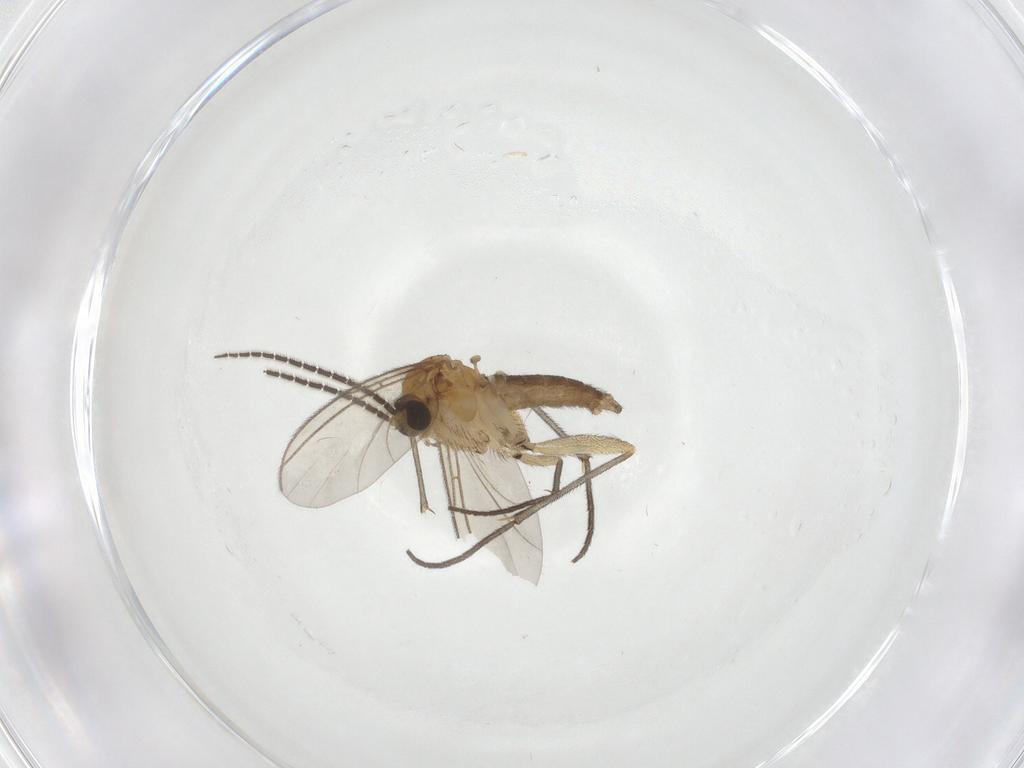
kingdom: Animalia
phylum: Arthropoda
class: Insecta
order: Diptera
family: Sciaridae
